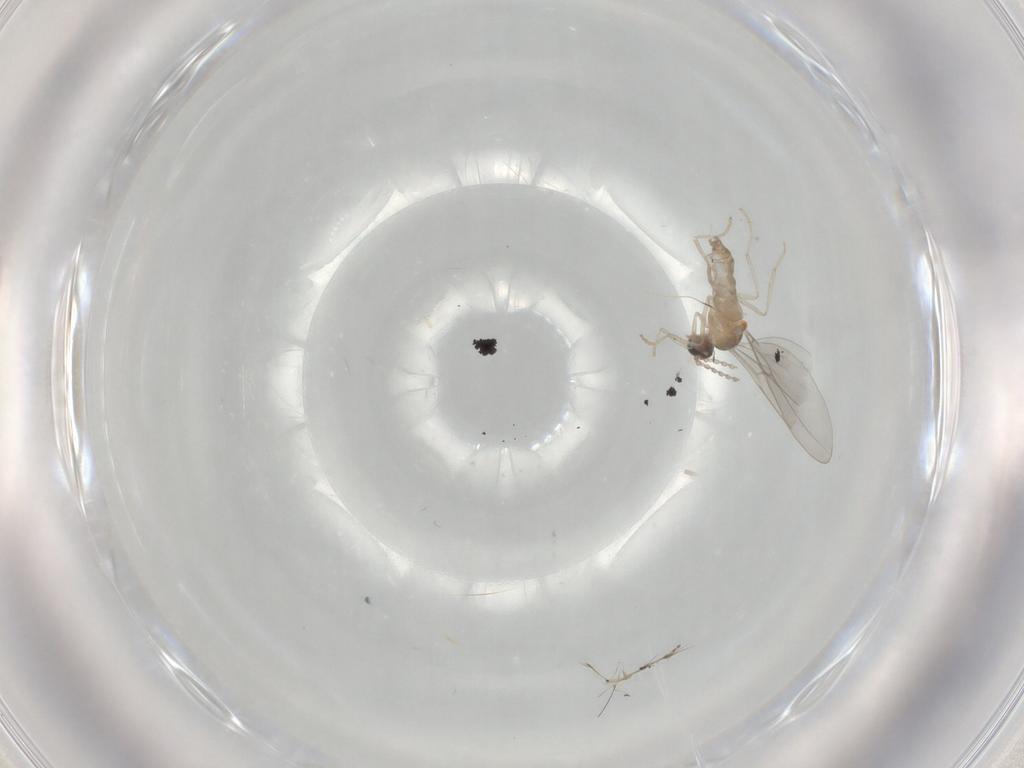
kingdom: Animalia
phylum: Arthropoda
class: Insecta
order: Diptera
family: Cecidomyiidae
